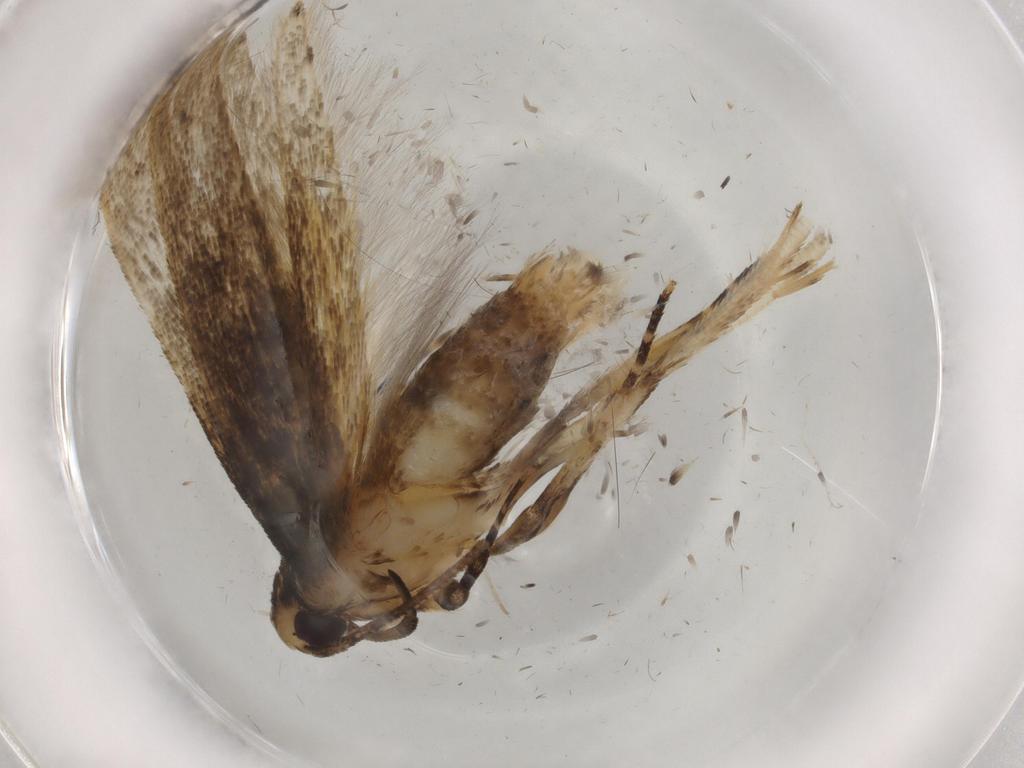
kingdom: Animalia
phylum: Arthropoda
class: Insecta
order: Lepidoptera
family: Cosmopterigidae
